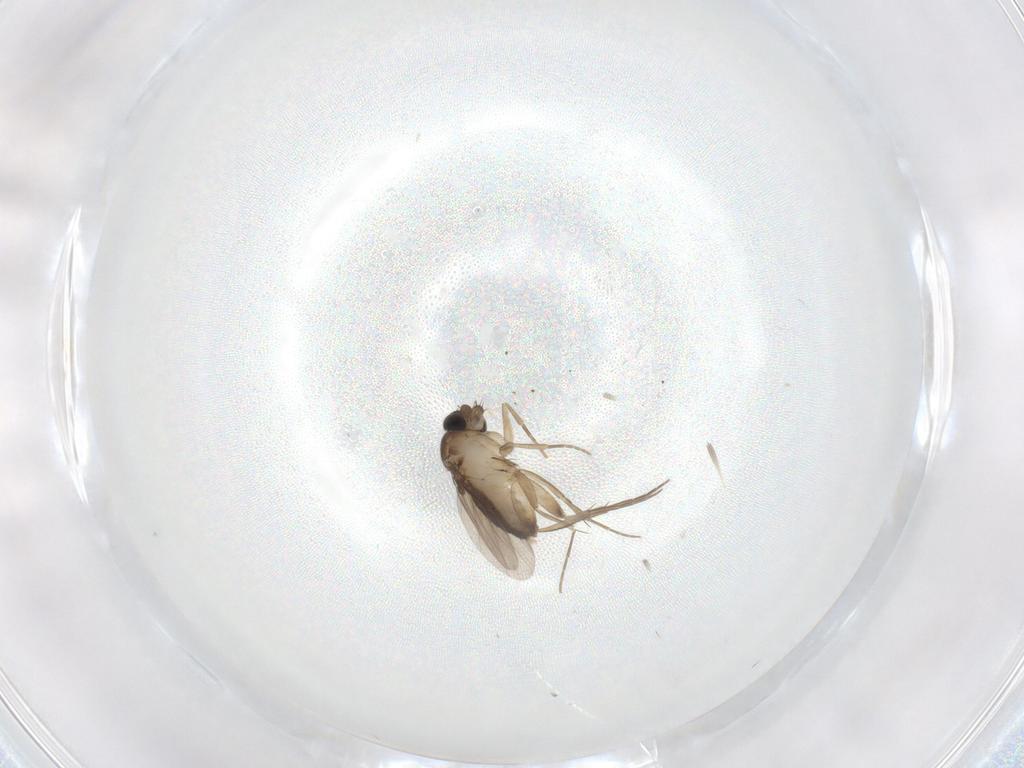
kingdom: Animalia
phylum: Arthropoda
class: Insecta
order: Diptera
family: Phoridae
